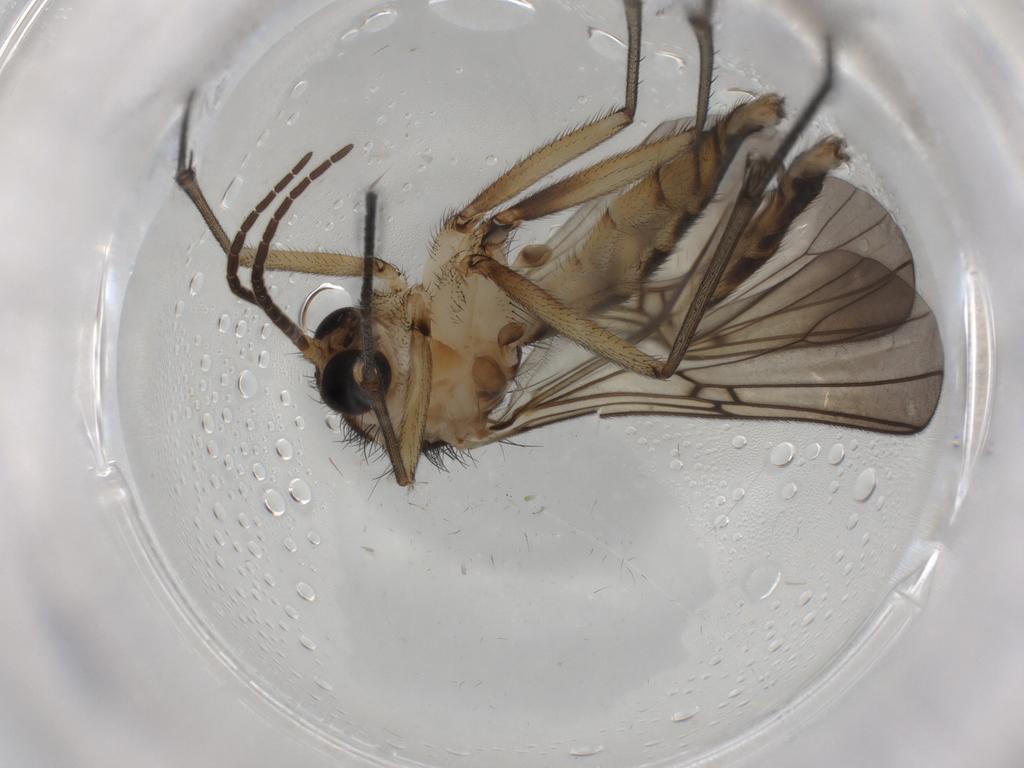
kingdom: Animalia
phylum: Arthropoda
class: Insecta
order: Diptera
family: Mycetophilidae
